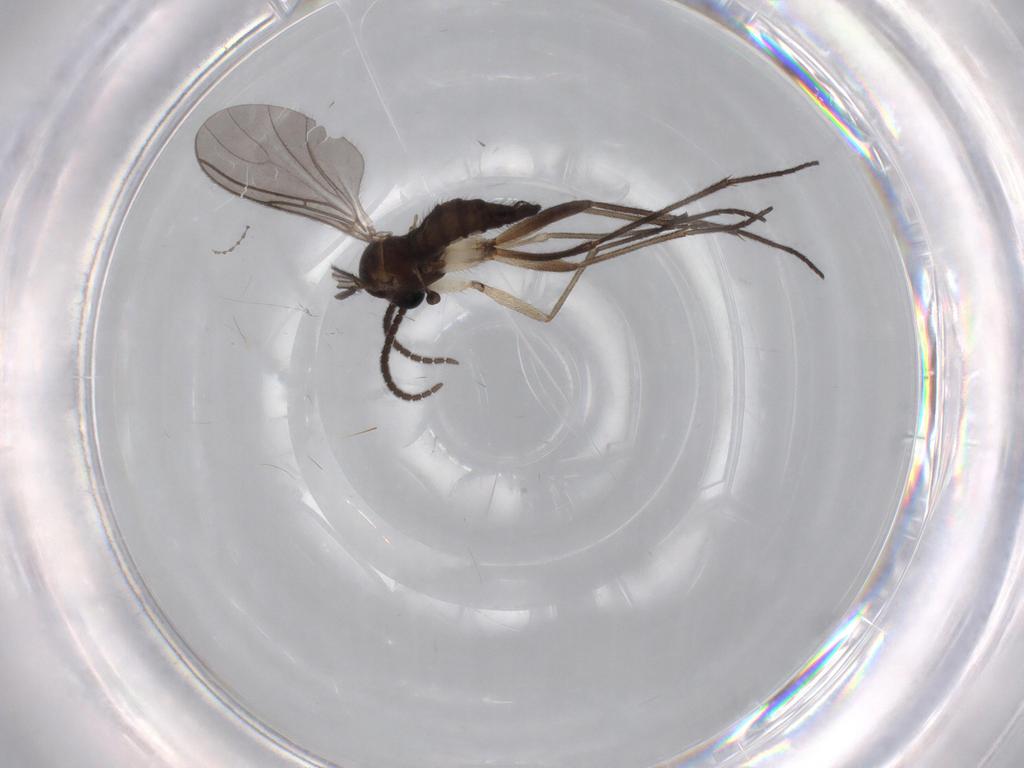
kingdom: Animalia
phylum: Arthropoda
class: Insecta
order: Diptera
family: Sciaridae
